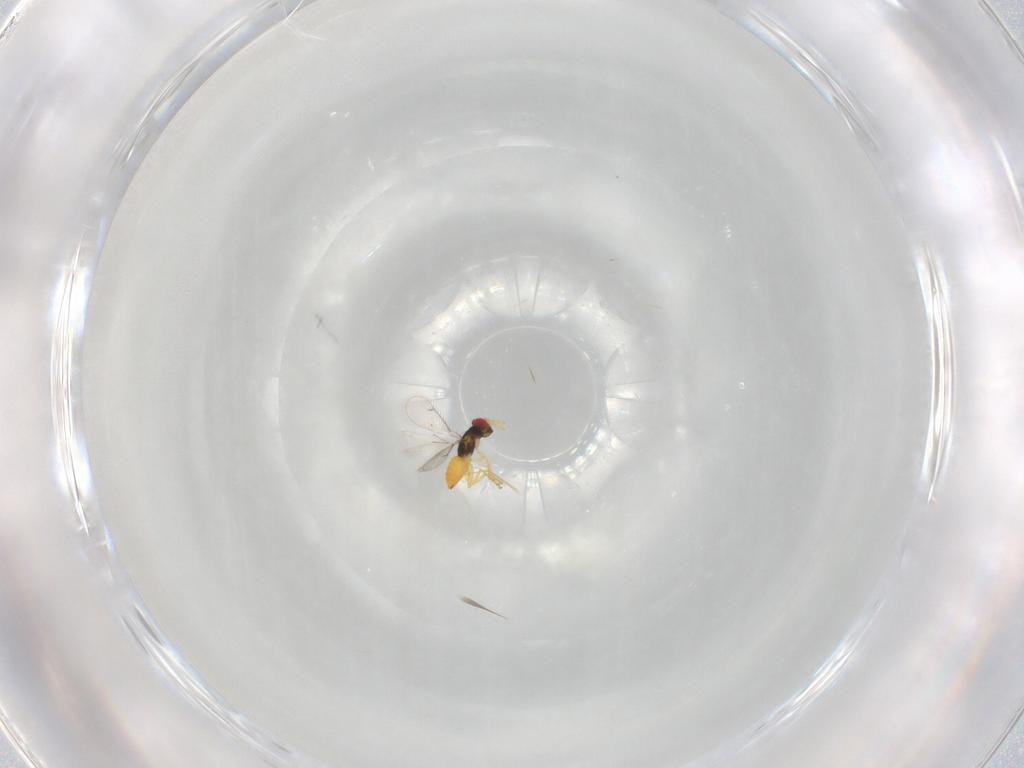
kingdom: Animalia
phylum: Arthropoda
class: Insecta
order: Hymenoptera
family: Eulophidae
